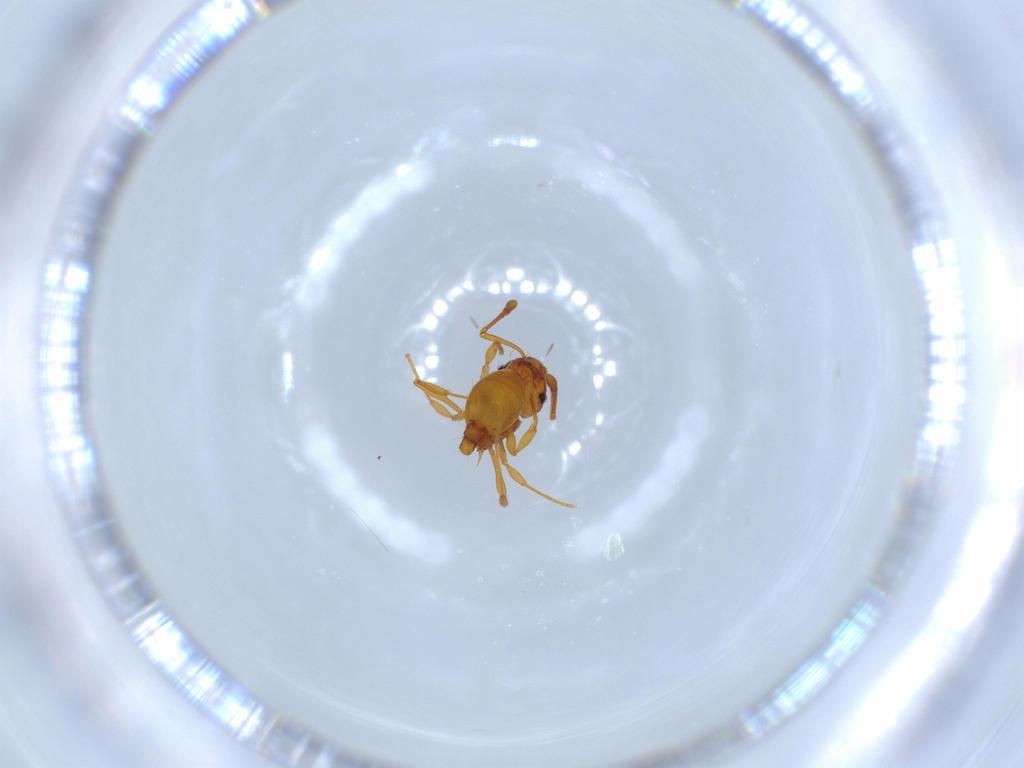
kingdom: Animalia
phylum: Arthropoda
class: Insecta
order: Hymenoptera
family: Formicidae
